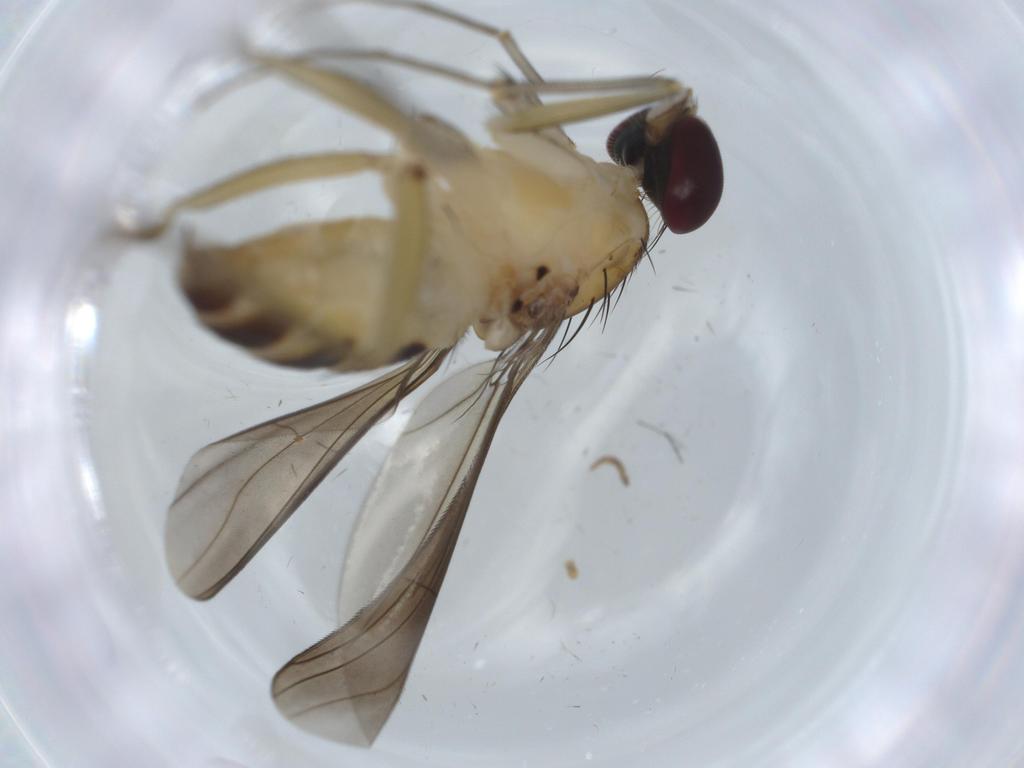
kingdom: Animalia
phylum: Arthropoda
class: Insecta
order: Diptera
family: Dolichopodidae
